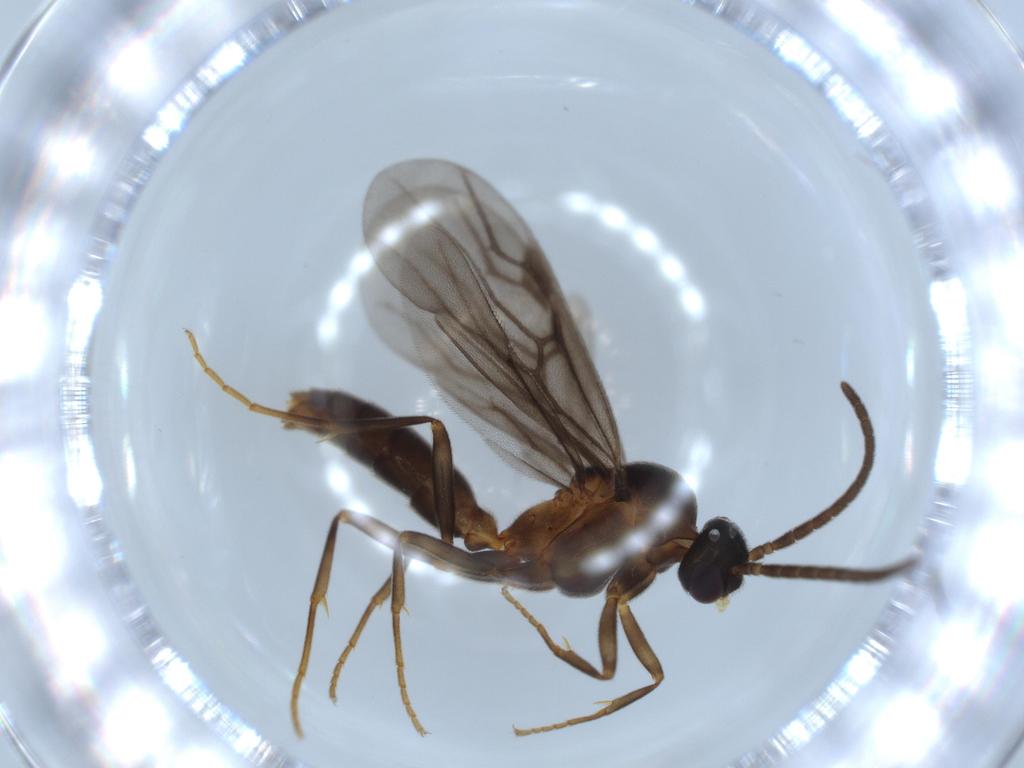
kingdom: Animalia
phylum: Arthropoda
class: Insecta
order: Hymenoptera
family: Formicidae
